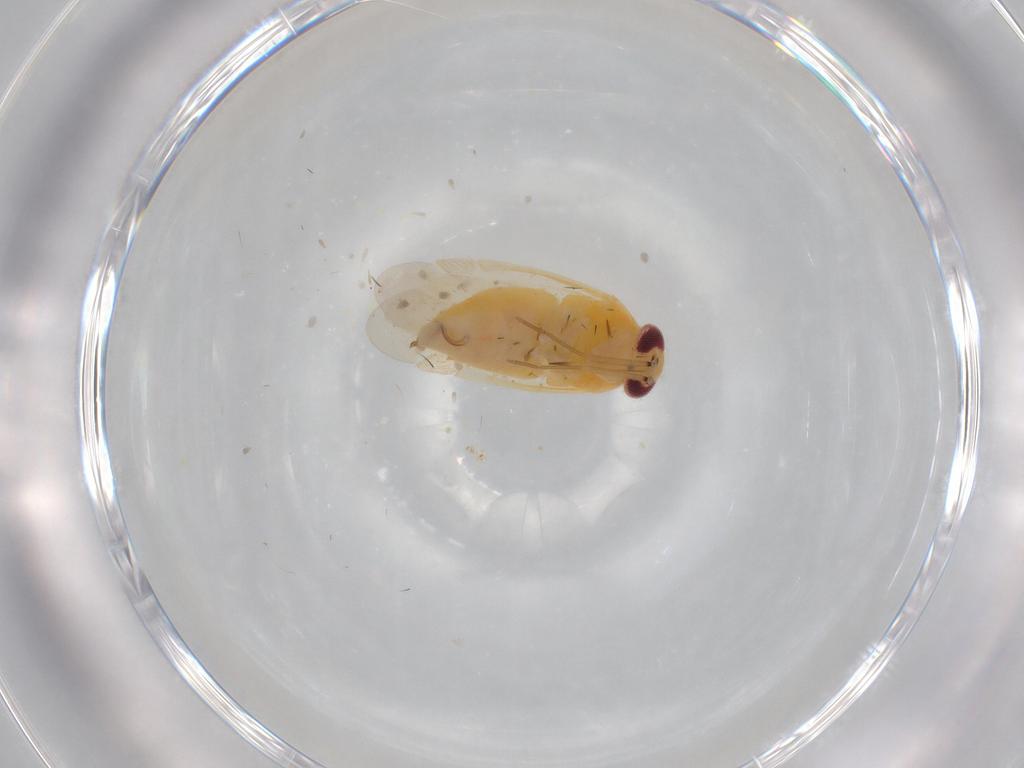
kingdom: Animalia
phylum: Arthropoda
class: Insecta
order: Hemiptera
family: Miridae
